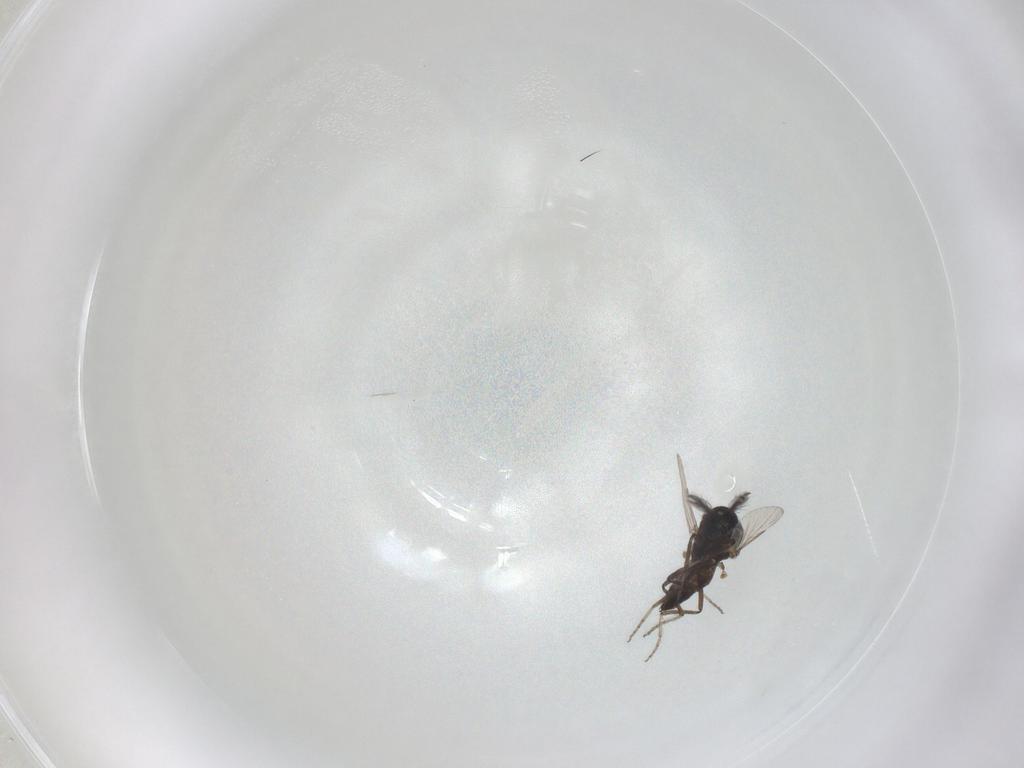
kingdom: Animalia
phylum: Arthropoda
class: Insecta
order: Diptera
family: Ceratopogonidae
